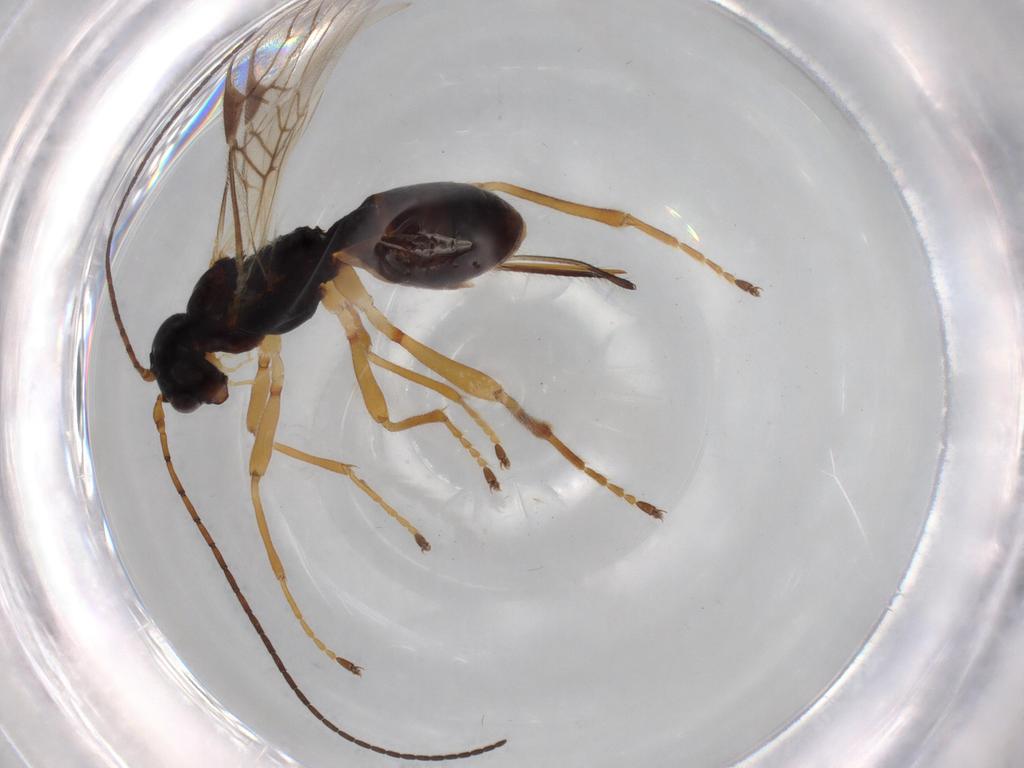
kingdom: Animalia
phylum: Arthropoda
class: Insecta
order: Hymenoptera
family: Braconidae
